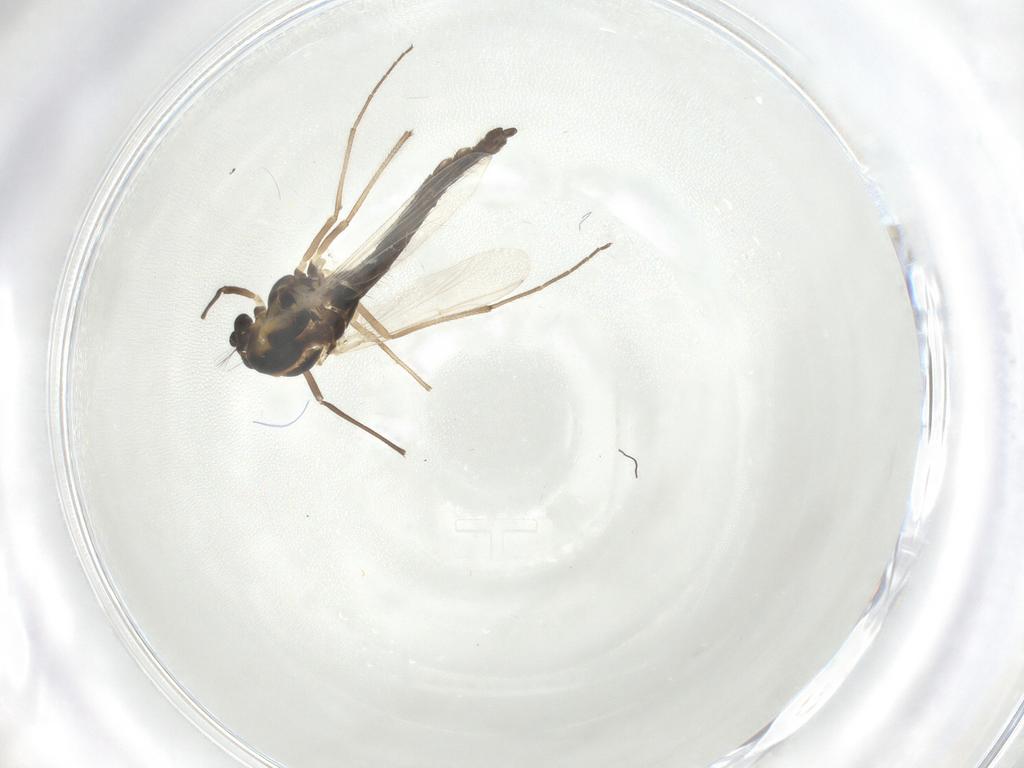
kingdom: Animalia
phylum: Arthropoda
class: Insecta
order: Diptera
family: Chironomidae
